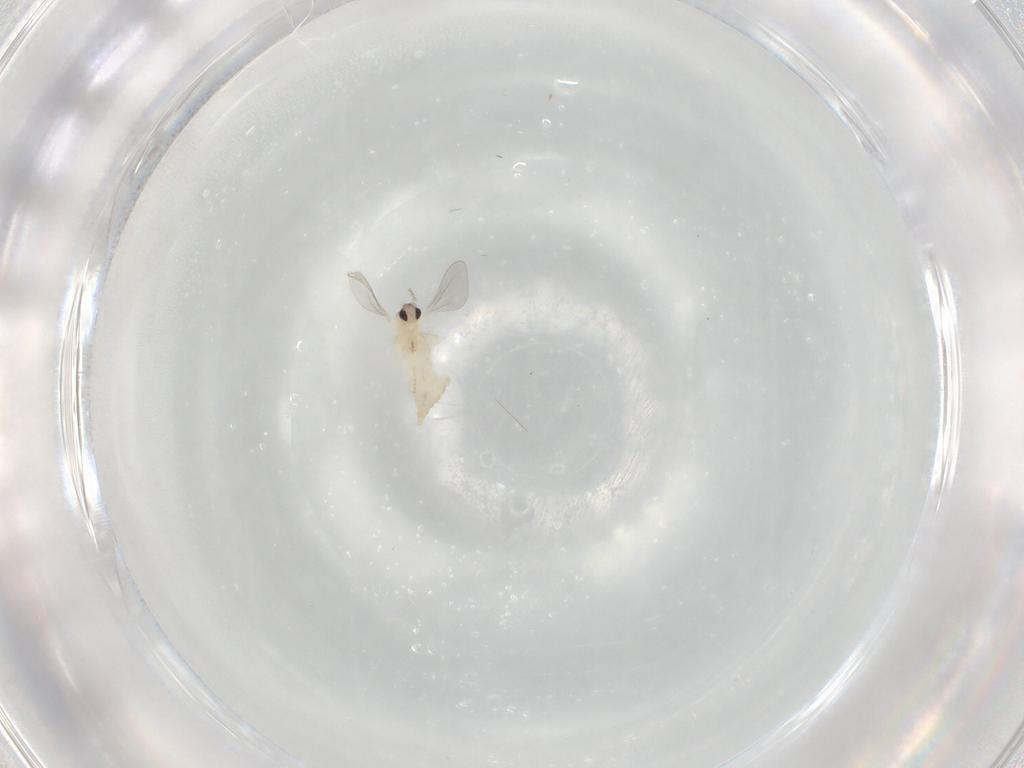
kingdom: Animalia
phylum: Arthropoda
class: Insecta
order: Diptera
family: Cecidomyiidae
